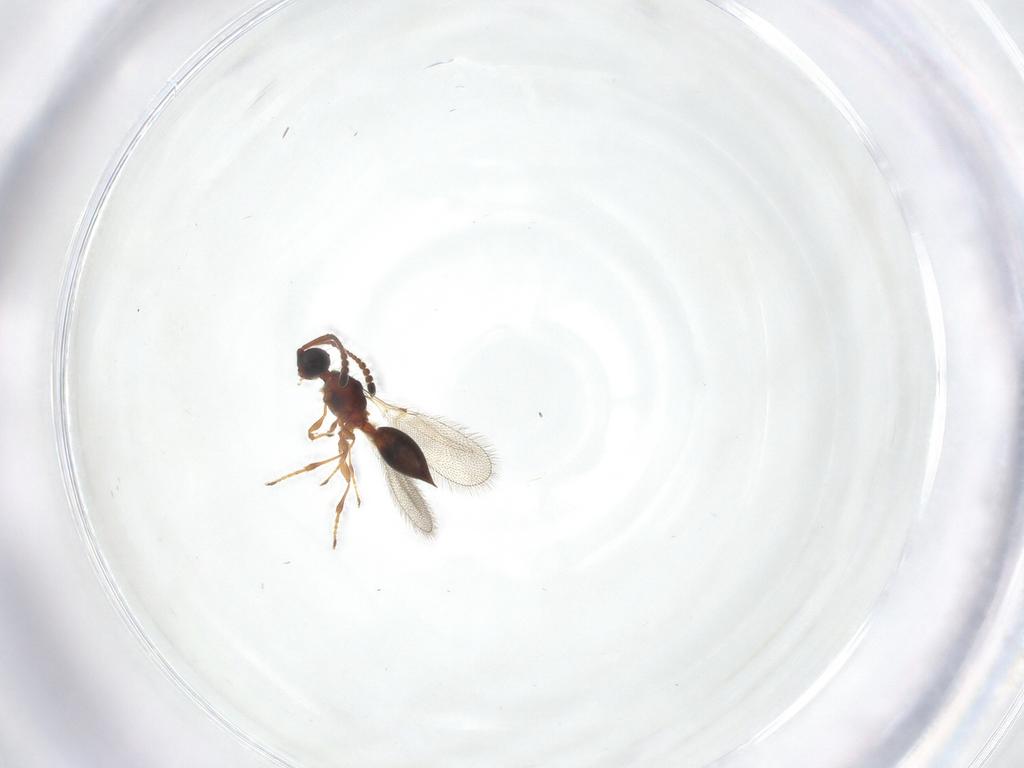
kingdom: Animalia
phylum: Arthropoda
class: Insecta
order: Hymenoptera
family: Diapriidae
